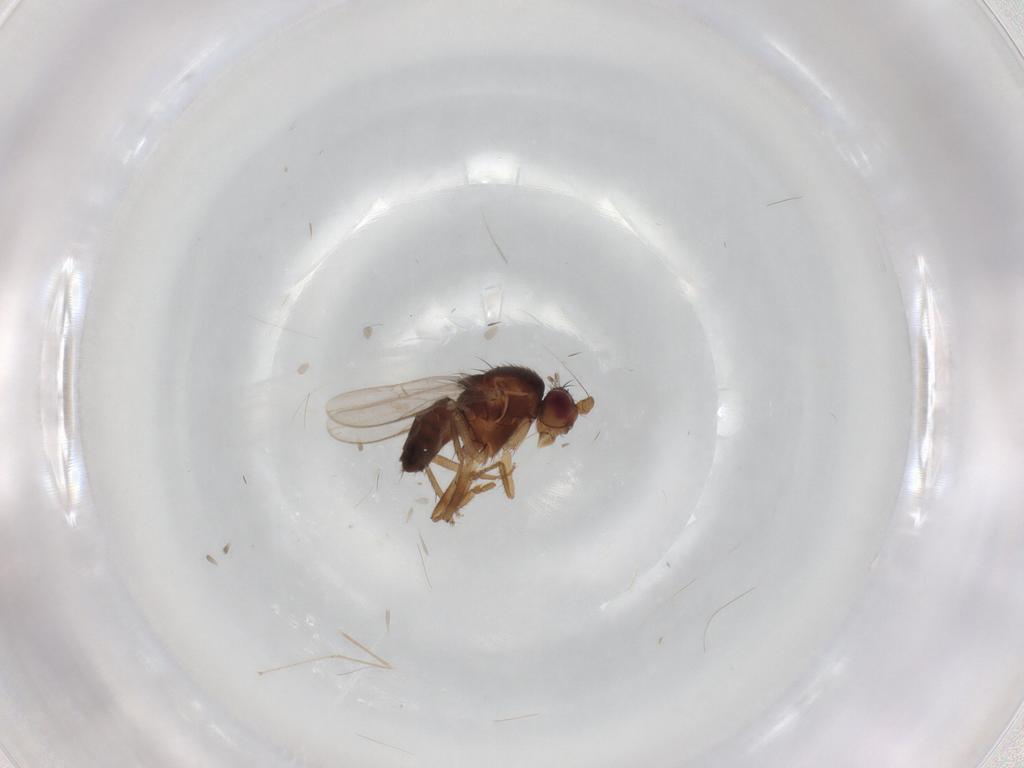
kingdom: Animalia
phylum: Arthropoda
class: Insecta
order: Diptera
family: Sphaeroceridae
